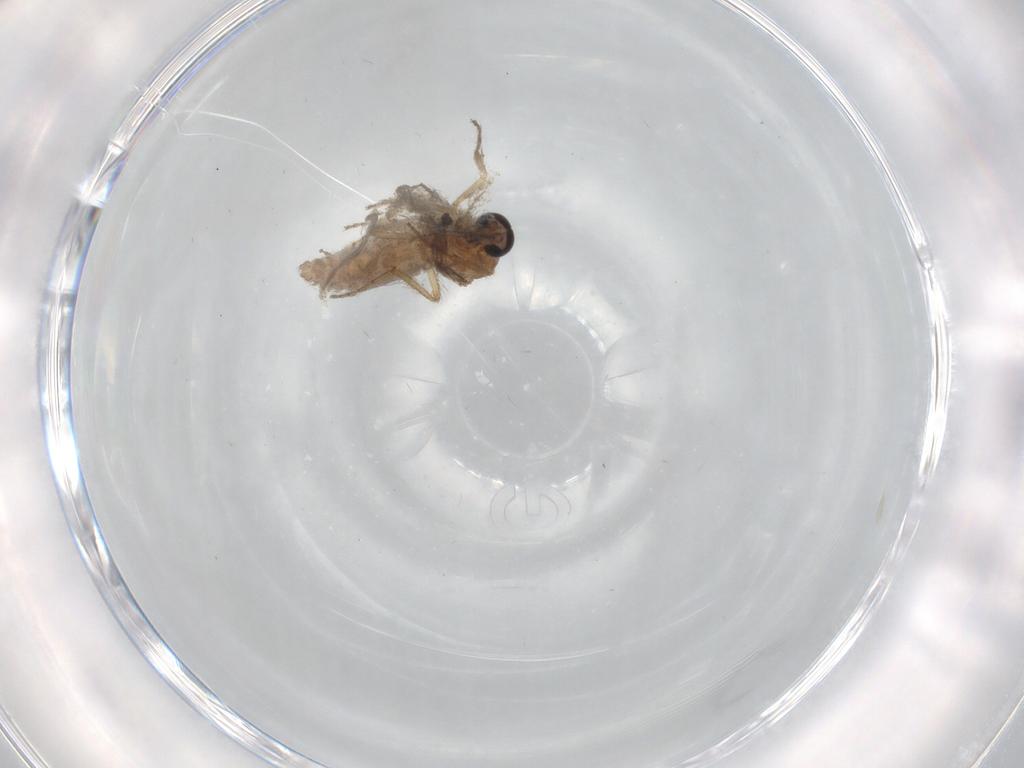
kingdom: Animalia
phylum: Arthropoda
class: Insecta
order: Diptera
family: Ceratopogonidae
